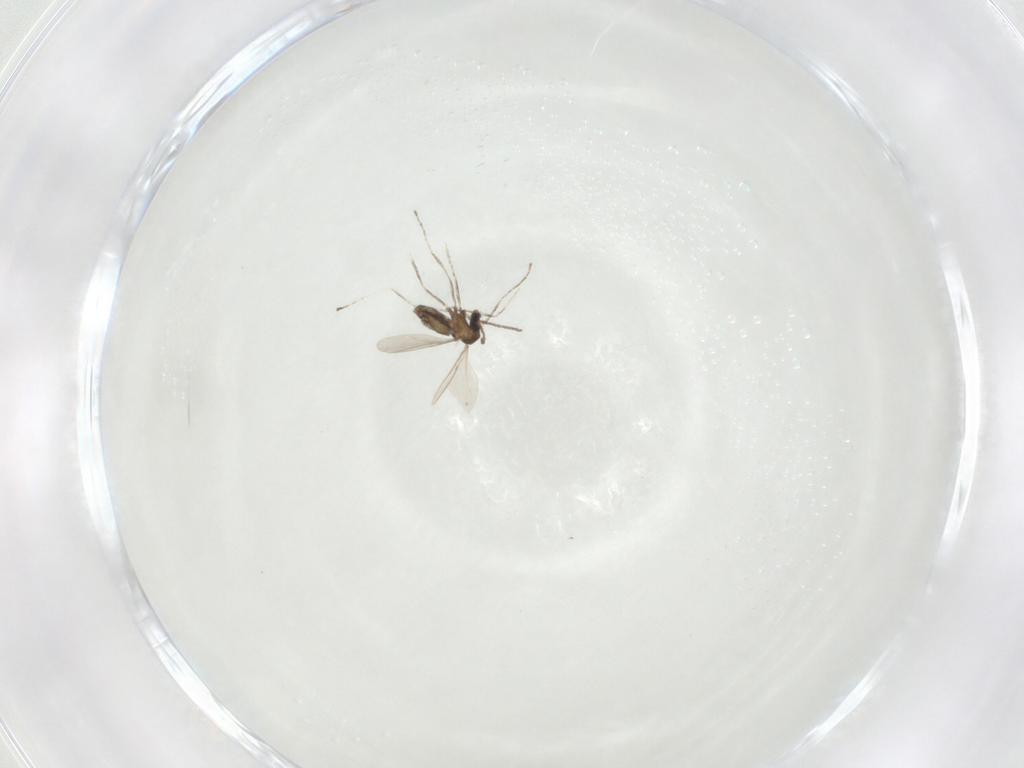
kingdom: Animalia
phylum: Arthropoda
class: Insecta
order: Diptera
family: Cecidomyiidae
